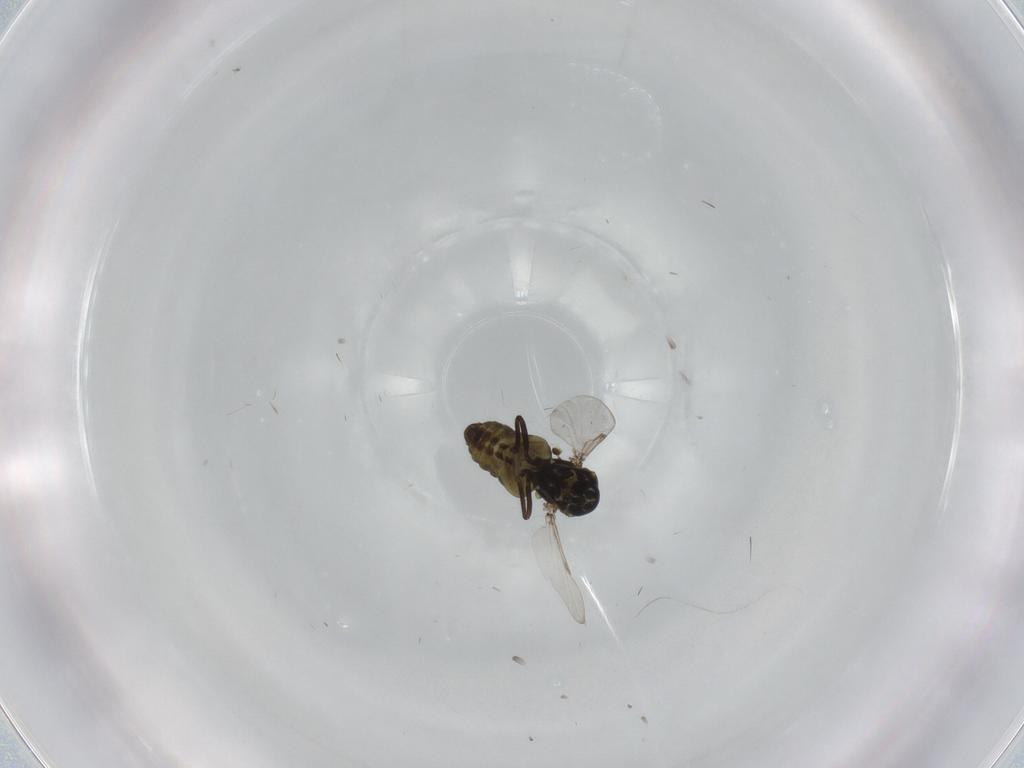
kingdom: Animalia
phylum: Arthropoda
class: Insecta
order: Diptera
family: Ceratopogonidae
